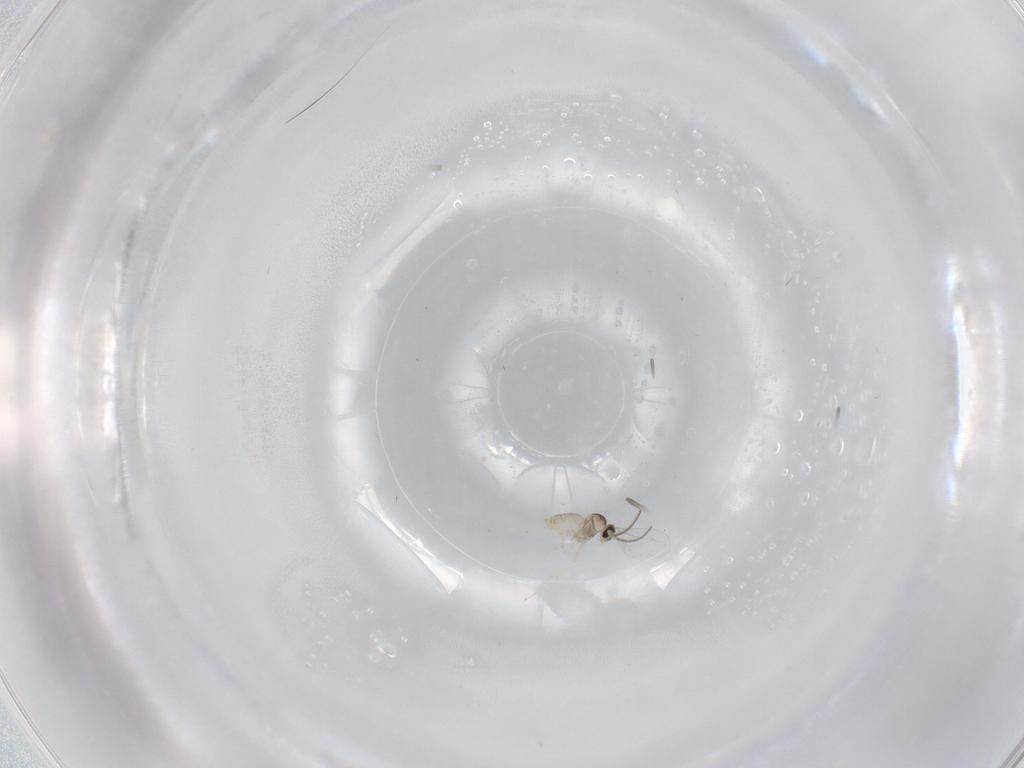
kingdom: Animalia
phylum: Arthropoda
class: Insecta
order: Diptera
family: Cecidomyiidae
